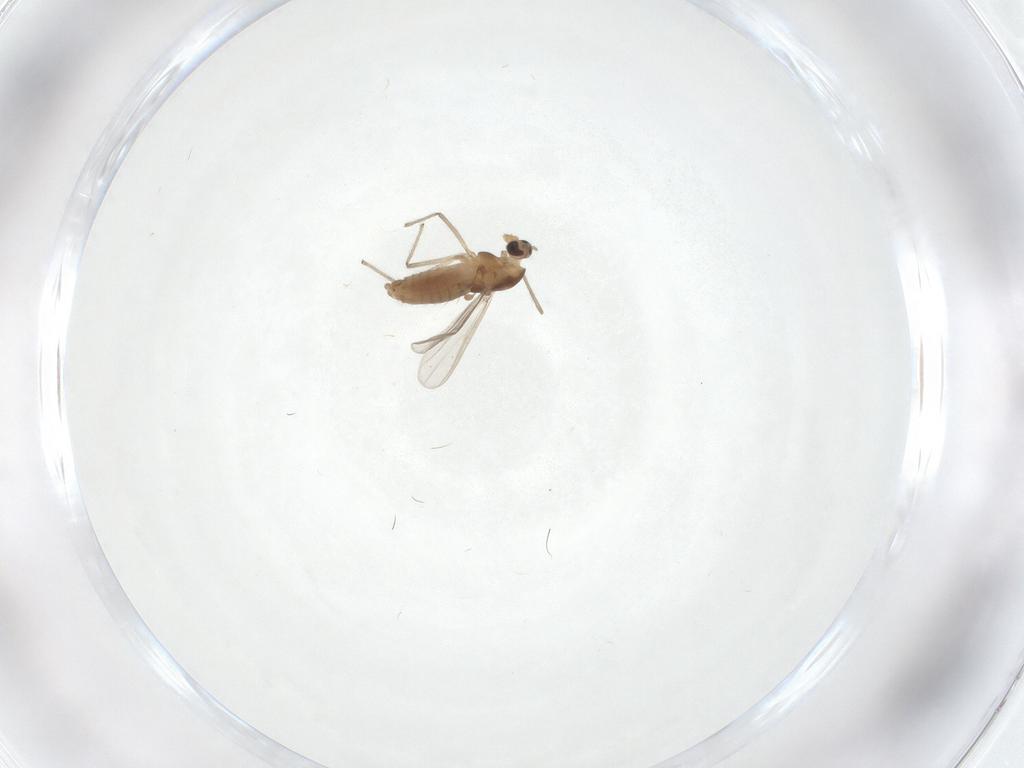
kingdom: Animalia
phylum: Arthropoda
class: Insecta
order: Diptera
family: Chironomidae
